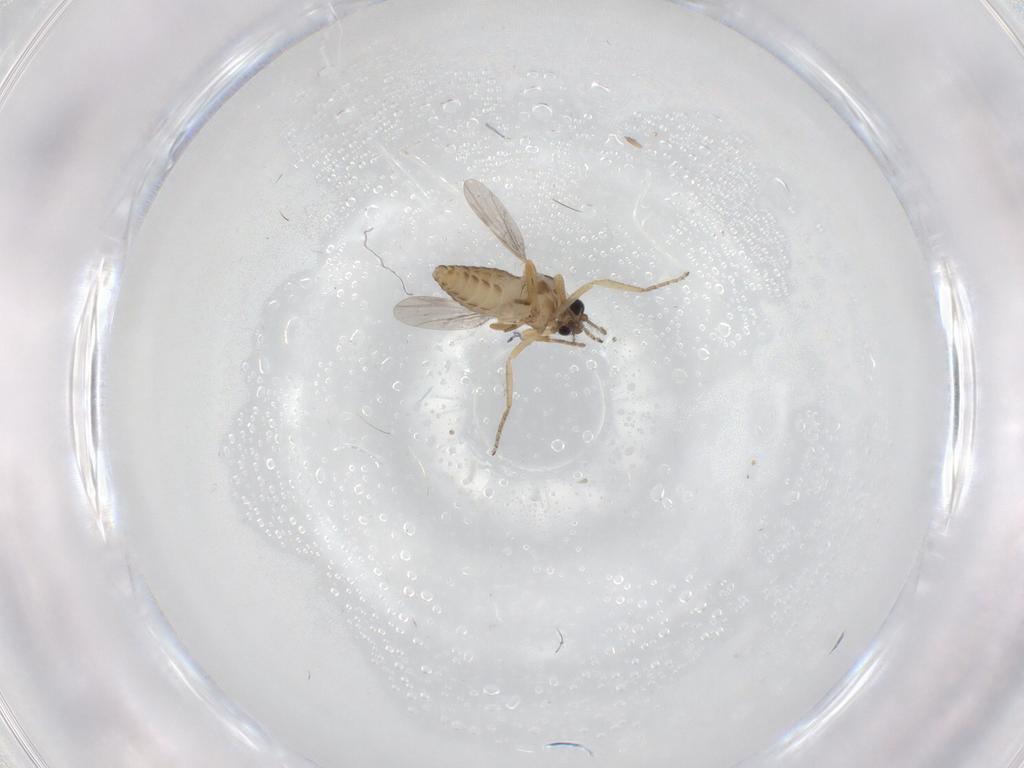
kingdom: Animalia
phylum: Arthropoda
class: Insecta
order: Diptera
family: Ceratopogonidae
